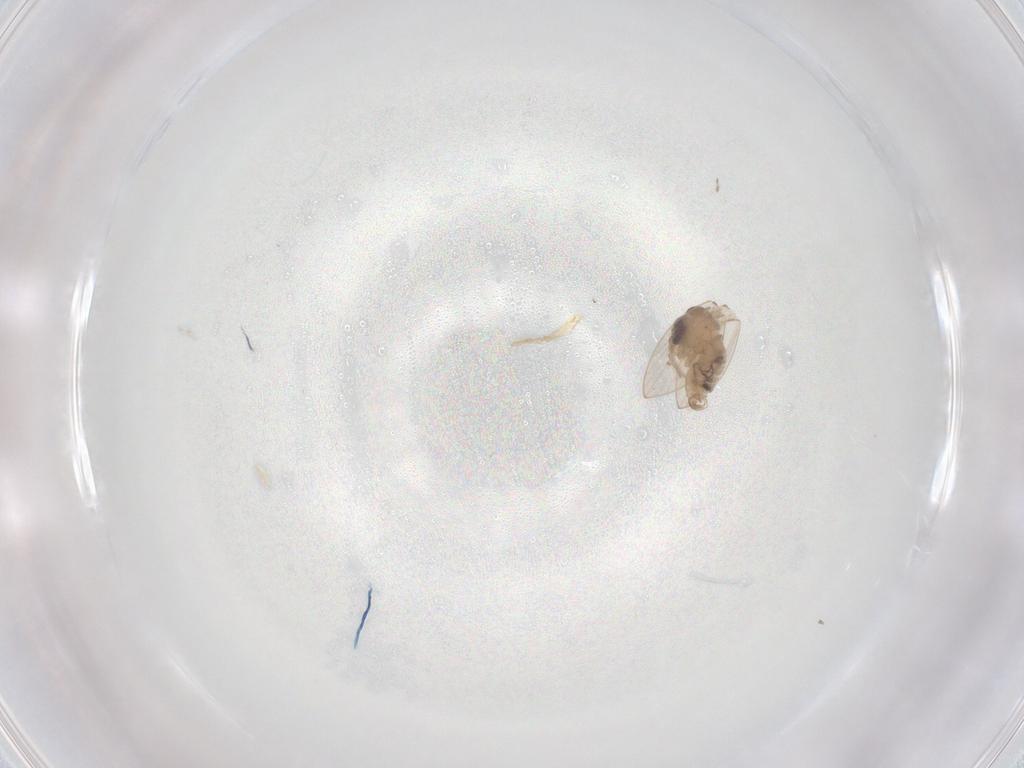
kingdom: Animalia
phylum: Arthropoda
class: Insecta
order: Diptera
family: Psychodidae
